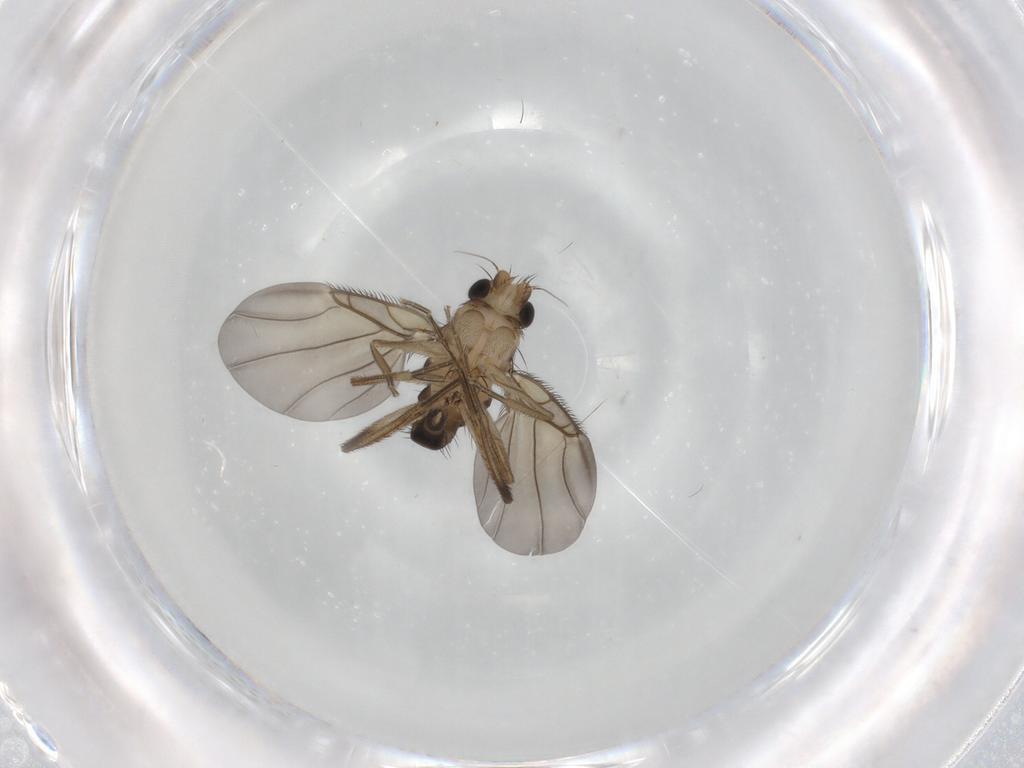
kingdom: Animalia
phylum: Arthropoda
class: Insecta
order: Diptera
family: Phoridae
